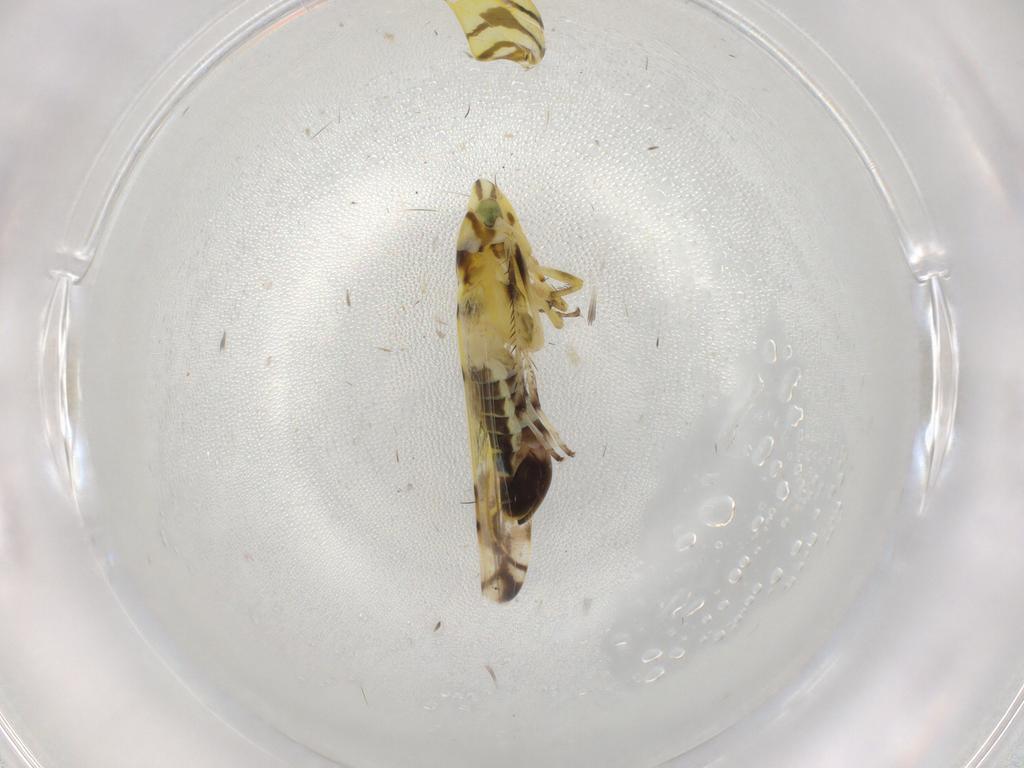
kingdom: Animalia
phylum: Arthropoda
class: Insecta
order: Hemiptera
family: Cicadellidae
